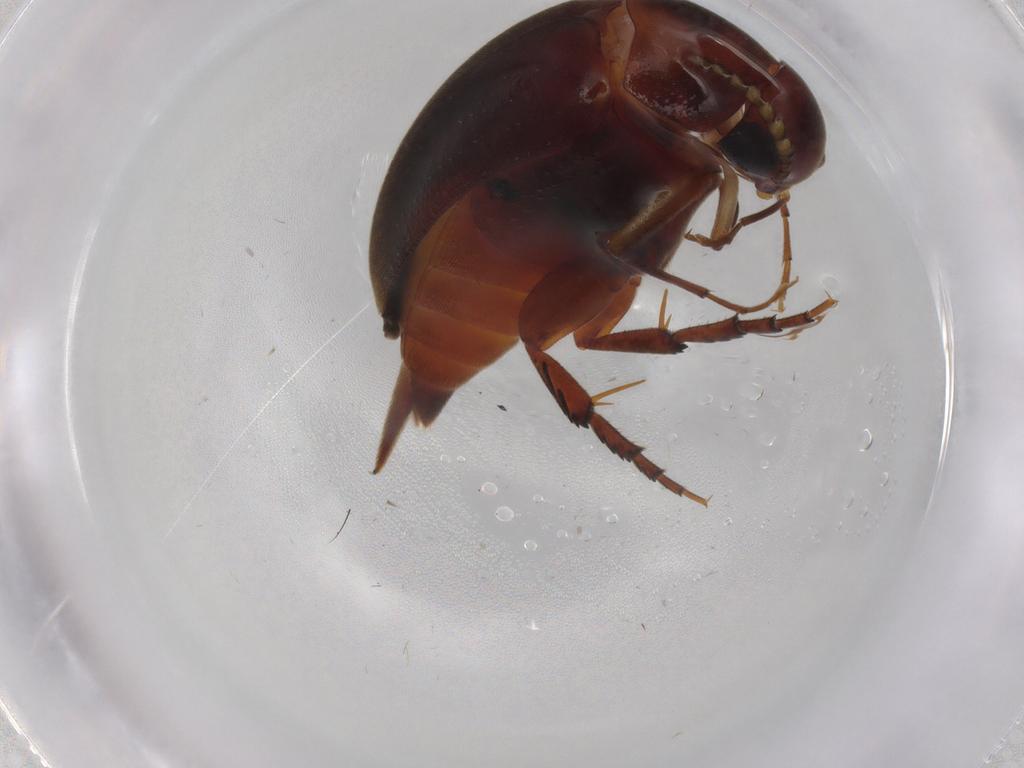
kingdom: Animalia
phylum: Arthropoda
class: Insecta
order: Coleoptera
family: Mordellidae
